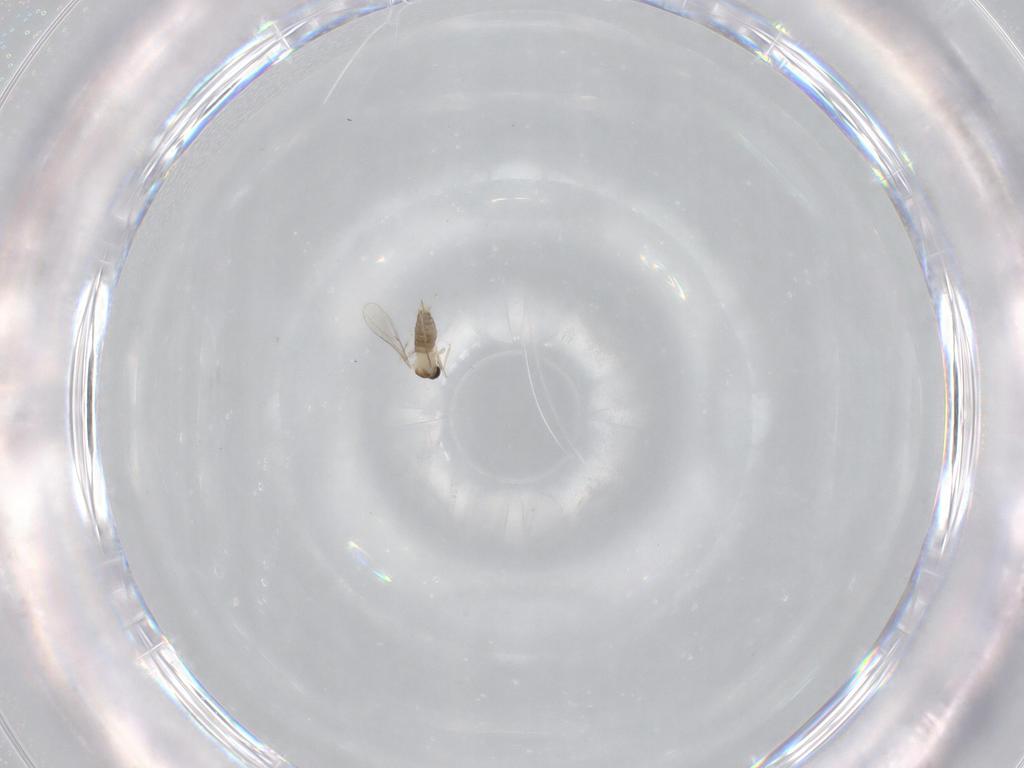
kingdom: Animalia
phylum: Arthropoda
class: Insecta
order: Diptera
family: Cecidomyiidae
